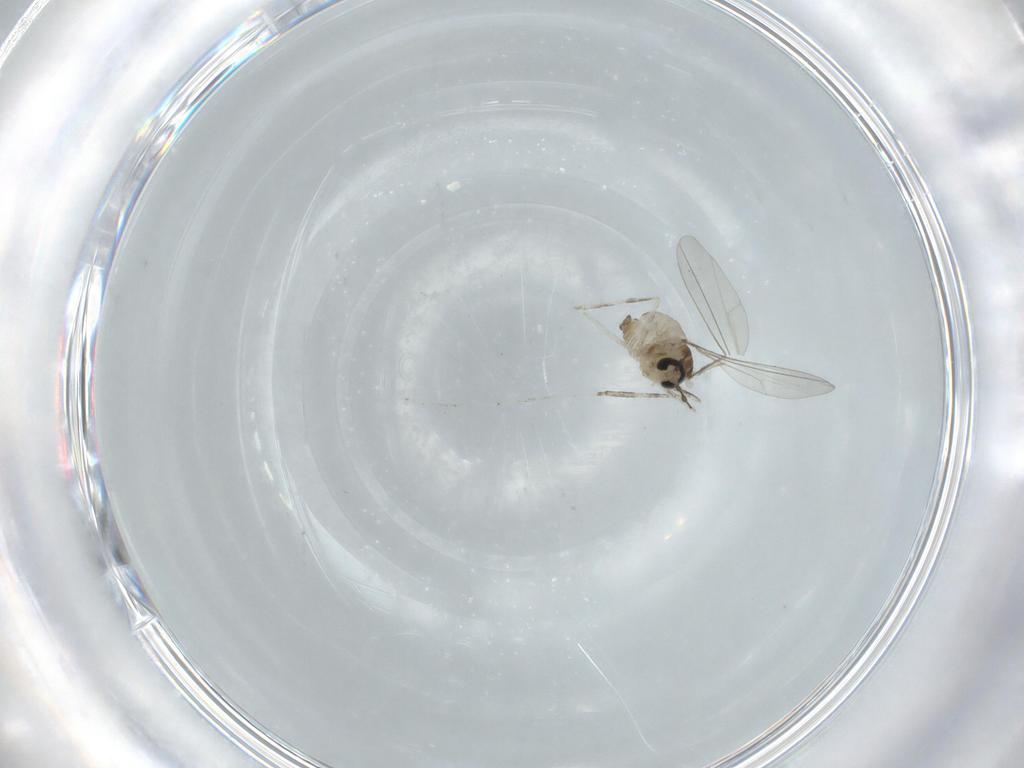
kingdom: Animalia
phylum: Arthropoda
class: Insecta
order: Diptera
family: Cecidomyiidae
